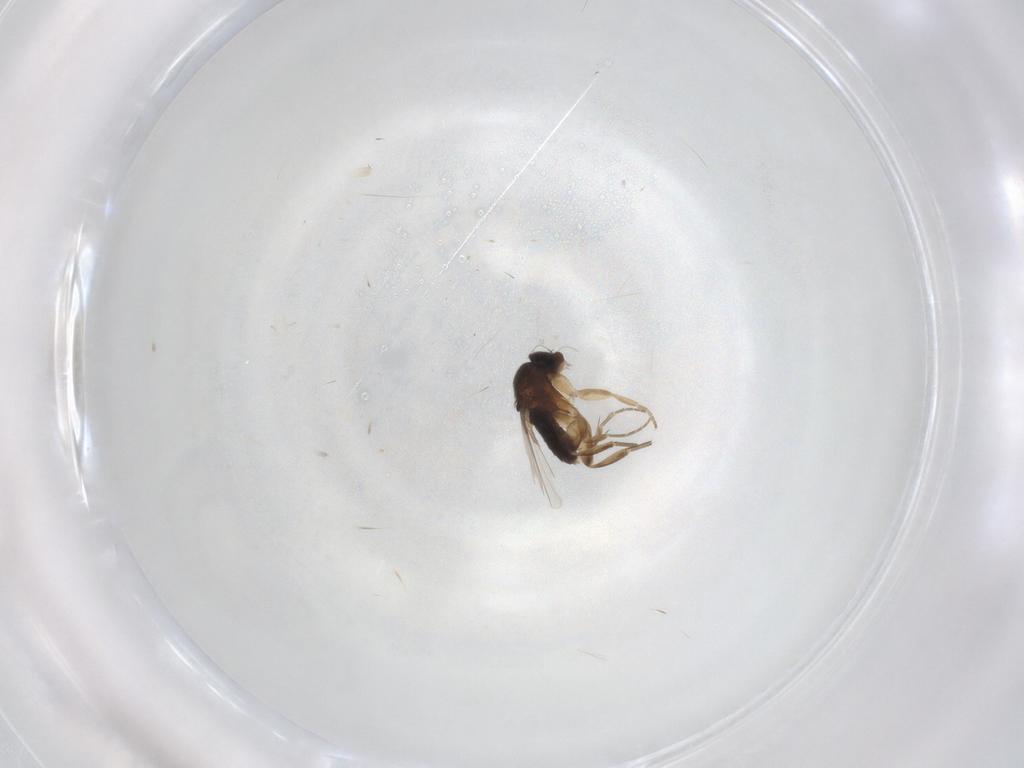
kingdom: Animalia
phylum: Arthropoda
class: Insecta
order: Diptera
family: Phoridae
